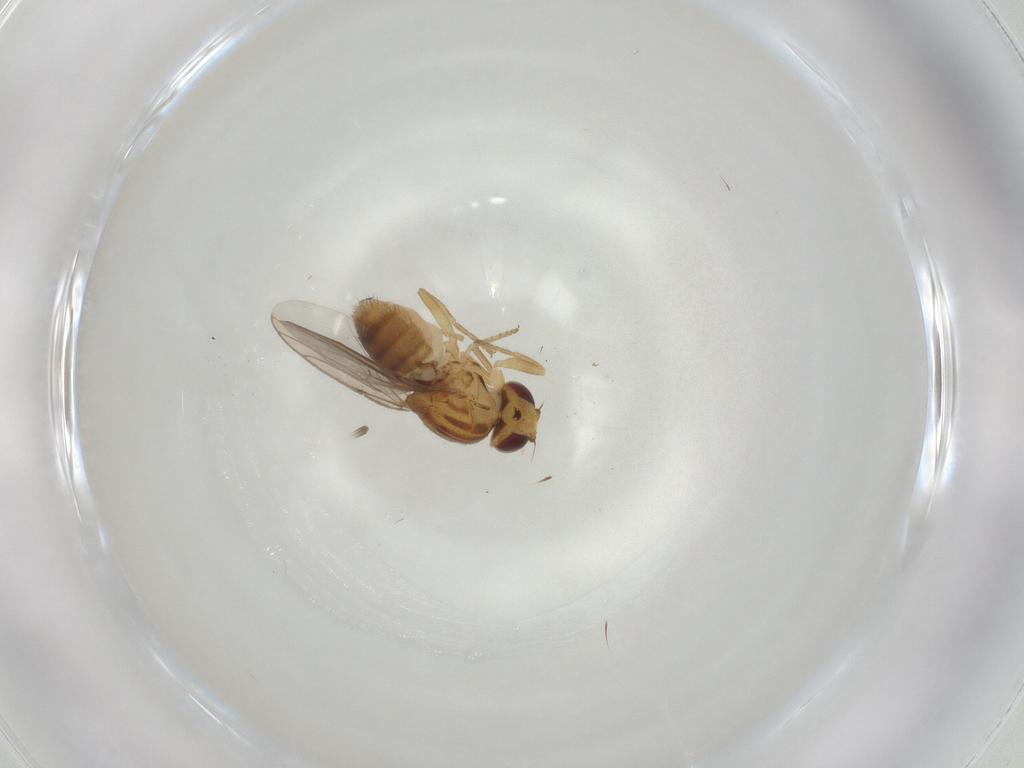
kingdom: Animalia
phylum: Arthropoda
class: Insecta
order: Diptera
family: Chloropidae
